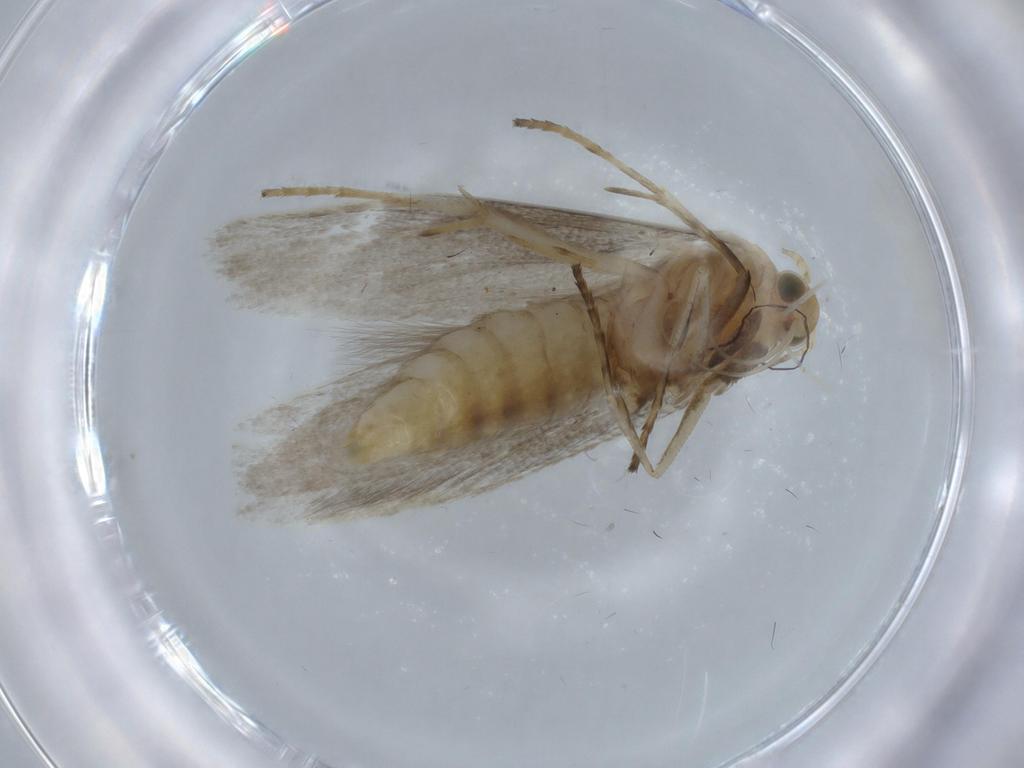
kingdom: Animalia
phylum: Arthropoda
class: Insecta
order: Lepidoptera
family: Argyresthiidae
